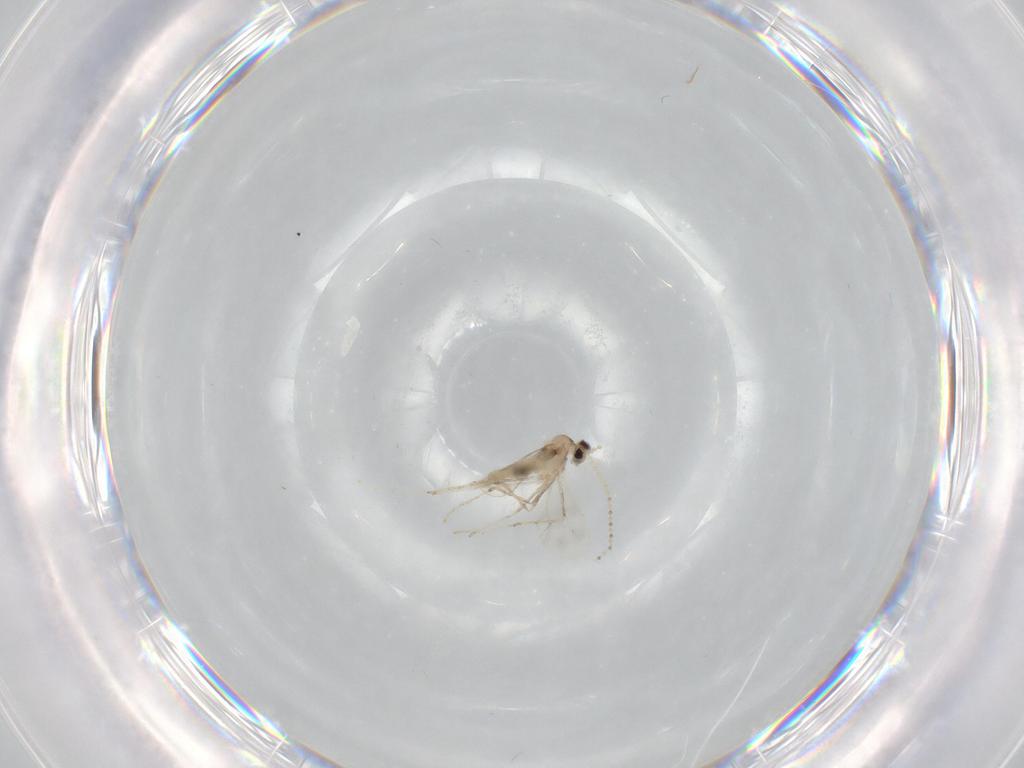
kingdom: Animalia
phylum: Arthropoda
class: Insecta
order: Diptera
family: Cecidomyiidae
